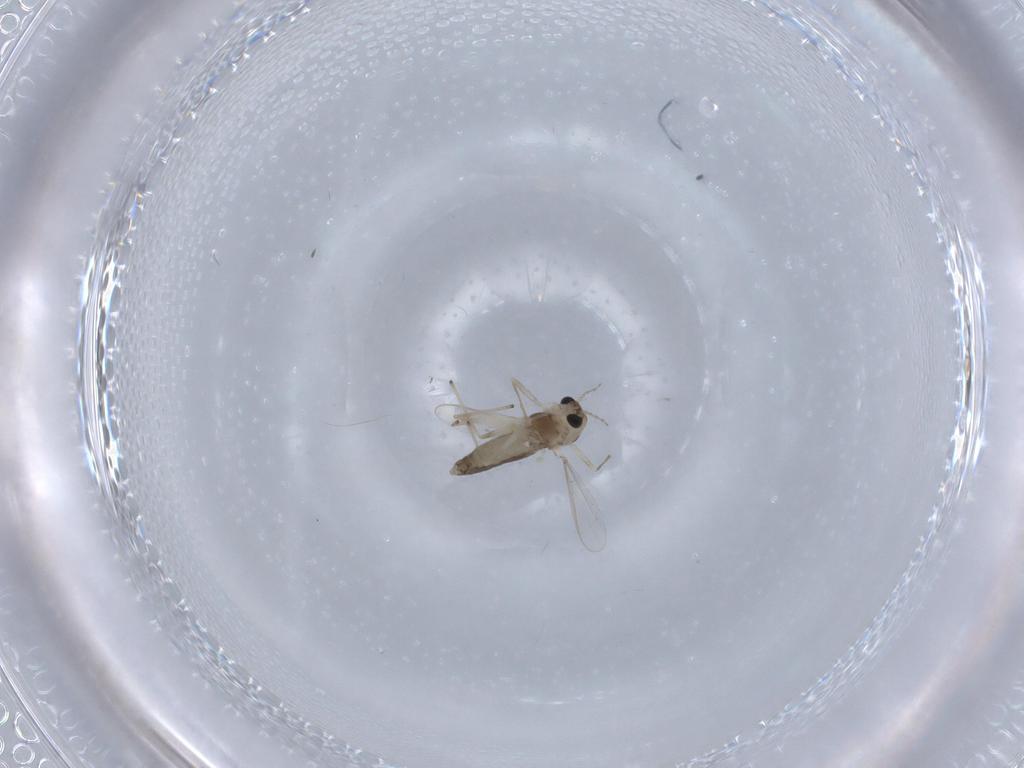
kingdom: Animalia
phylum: Arthropoda
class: Insecta
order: Diptera
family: Chironomidae
